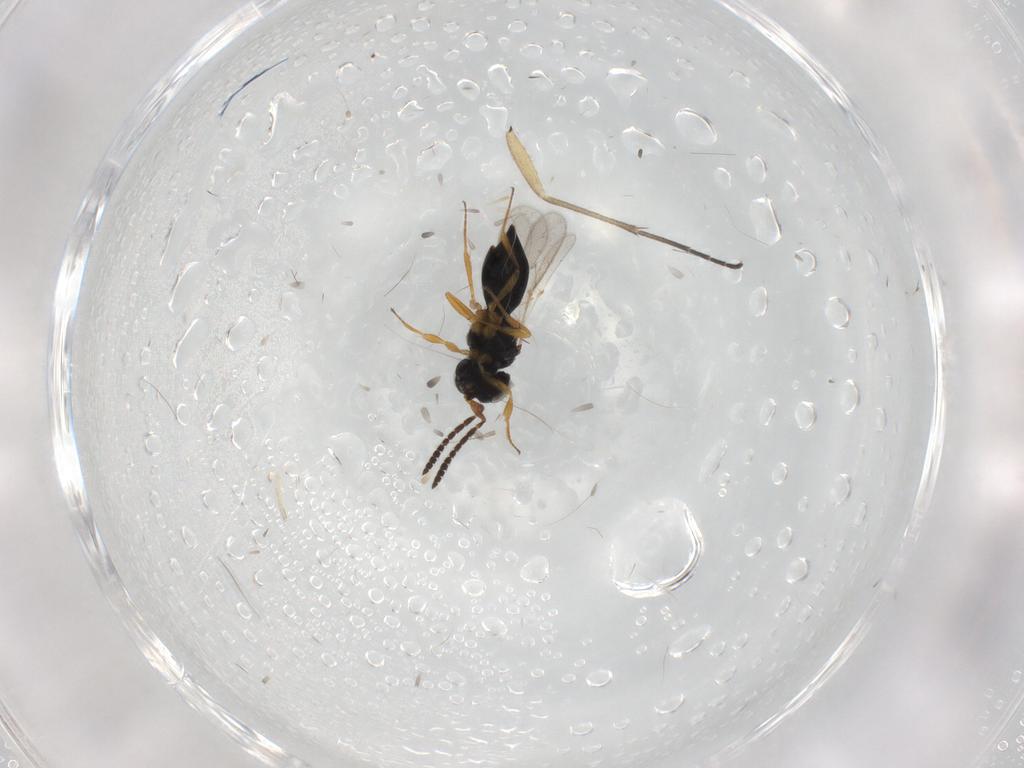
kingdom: Animalia
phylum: Arthropoda
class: Insecta
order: Hymenoptera
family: Scelionidae
